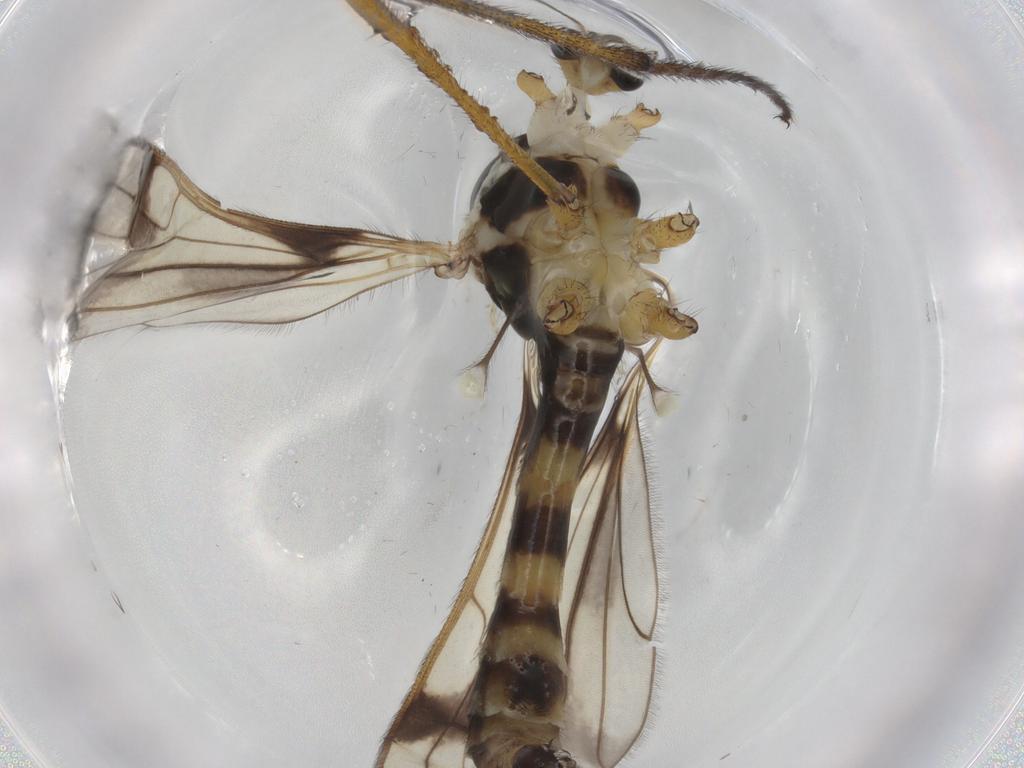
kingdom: Animalia
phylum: Arthropoda
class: Insecta
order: Diptera
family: Limoniidae
